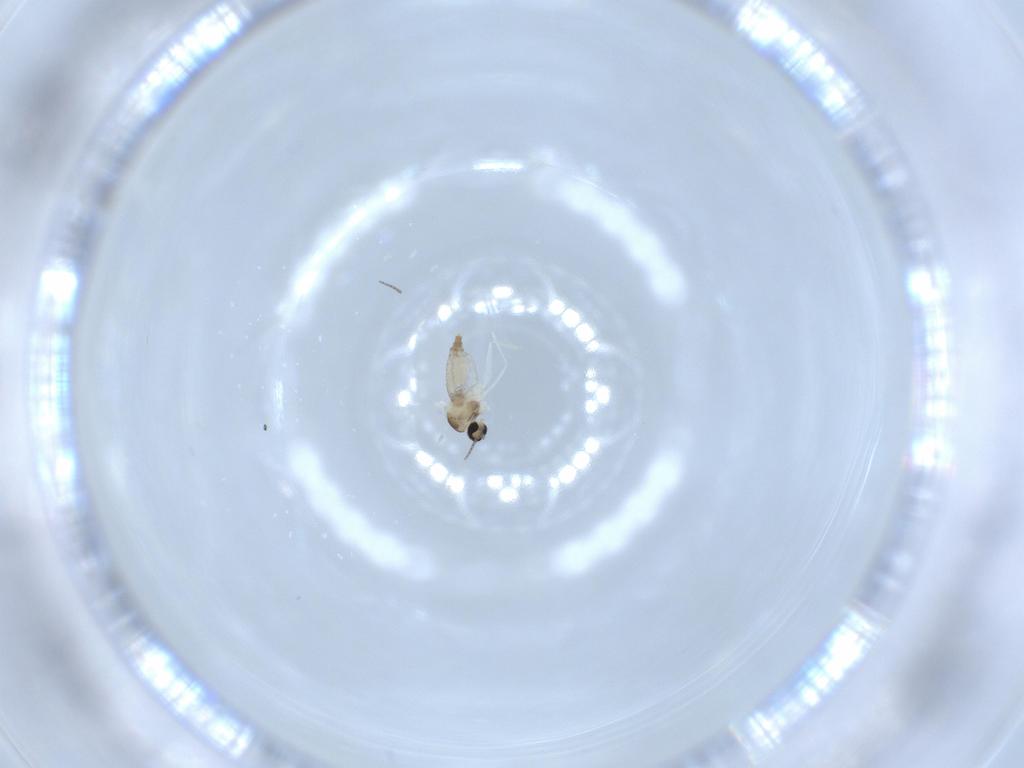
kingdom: Animalia
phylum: Arthropoda
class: Insecta
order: Diptera
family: Drosophilidae
